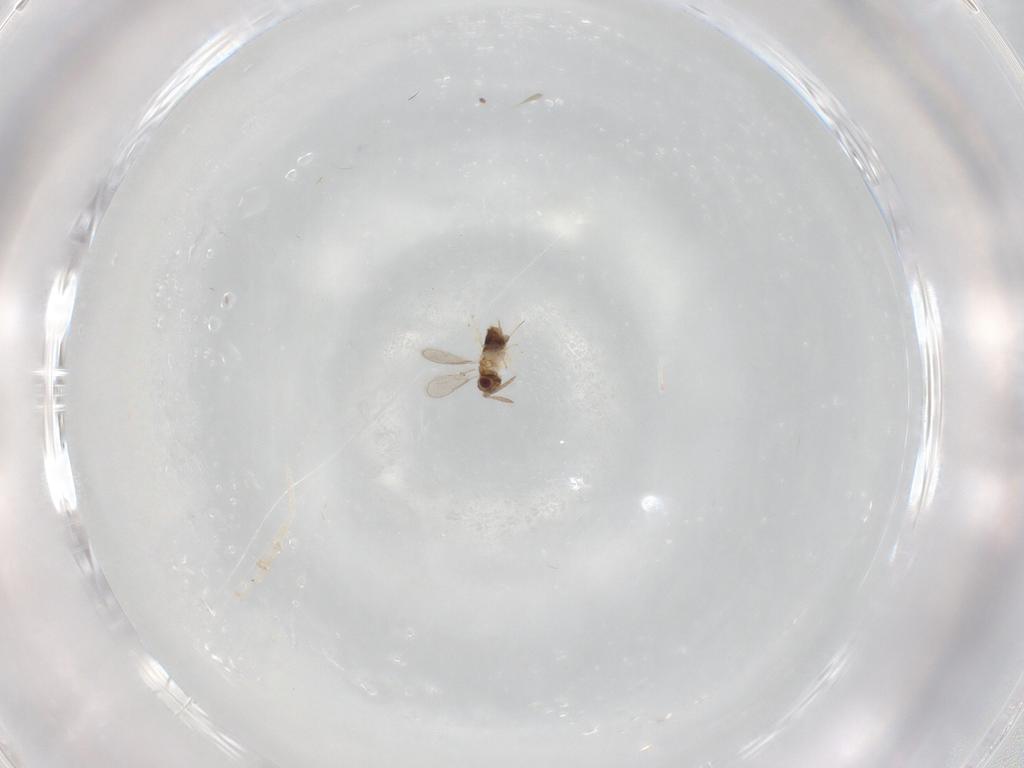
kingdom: Animalia
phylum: Arthropoda
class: Insecta
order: Hymenoptera
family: Aphelinidae
